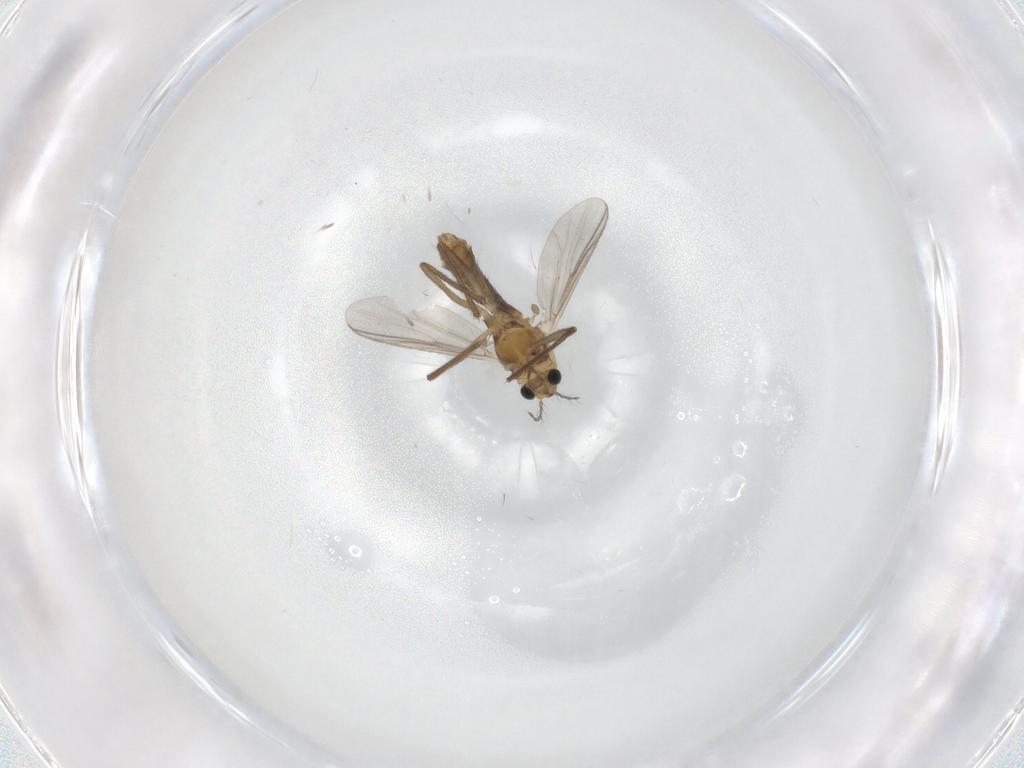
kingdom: Animalia
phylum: Arthropoda
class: Insecta
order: Diptera
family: Chironomidae
